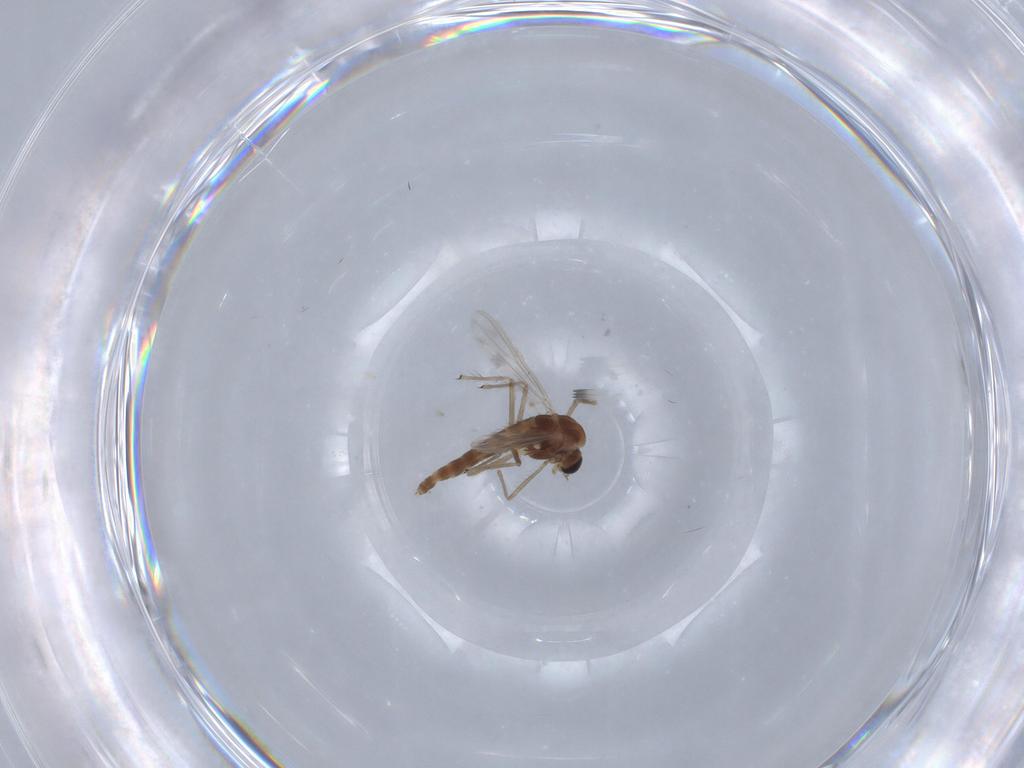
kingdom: Animalia
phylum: Arthropoda
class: Insecta
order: Diptera
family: Chironomidae
